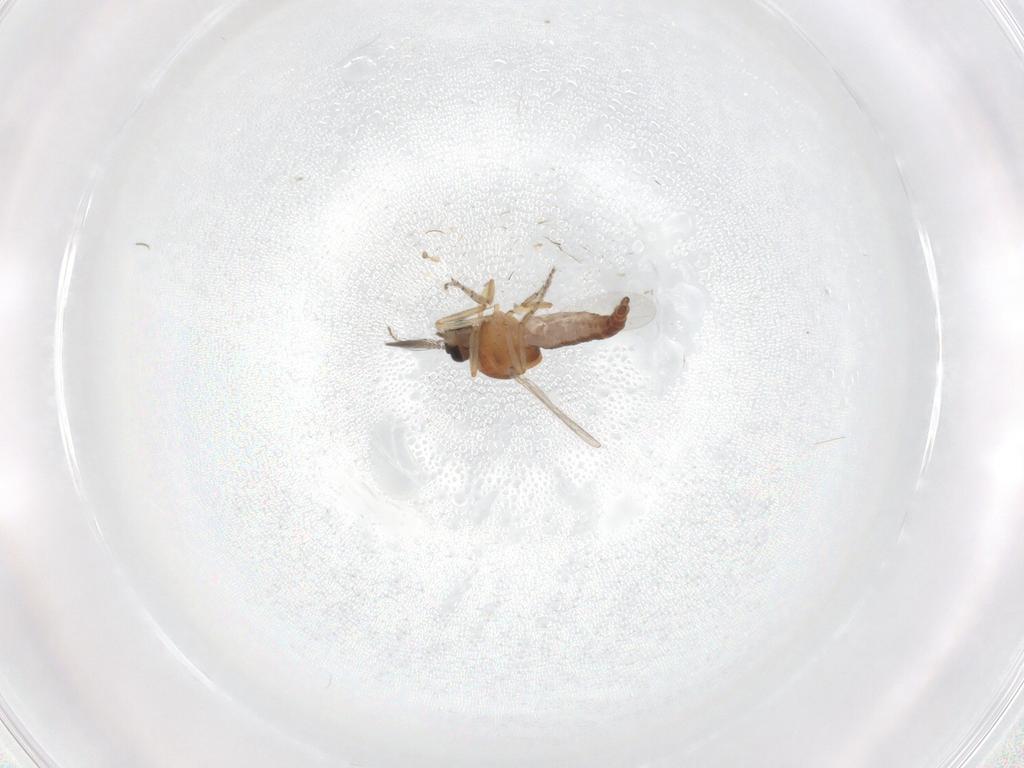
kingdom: Animalia
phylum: Arthropoda
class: Insecta
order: Diptera
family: Ceratopogonidae
